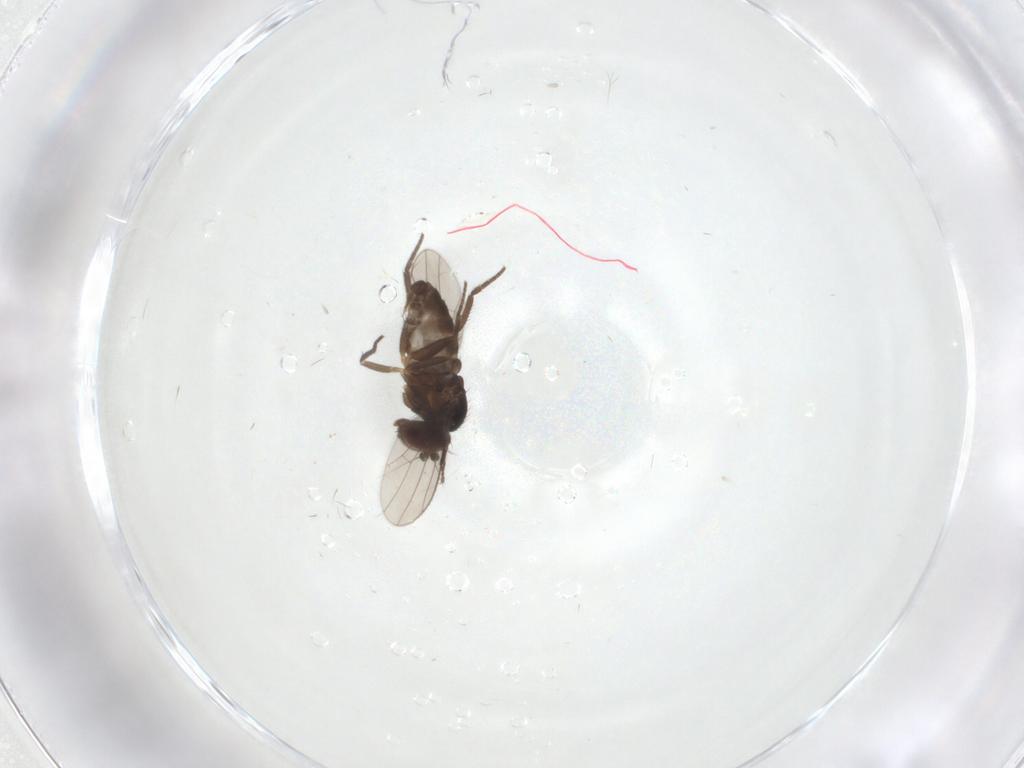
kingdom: Animalia
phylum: Arthropoda
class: Insecta
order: Diptera
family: Cecidomyiidae
